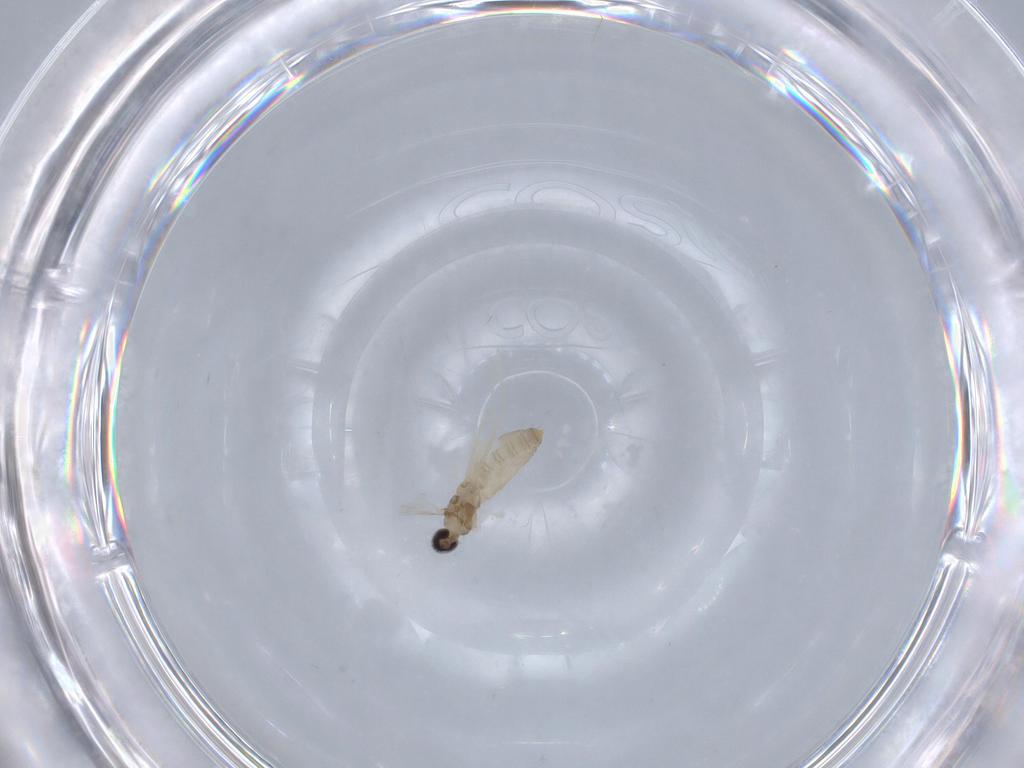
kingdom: Animalia
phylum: Arthropoda
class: Insecta
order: Diptera
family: Cecidomyiidae
